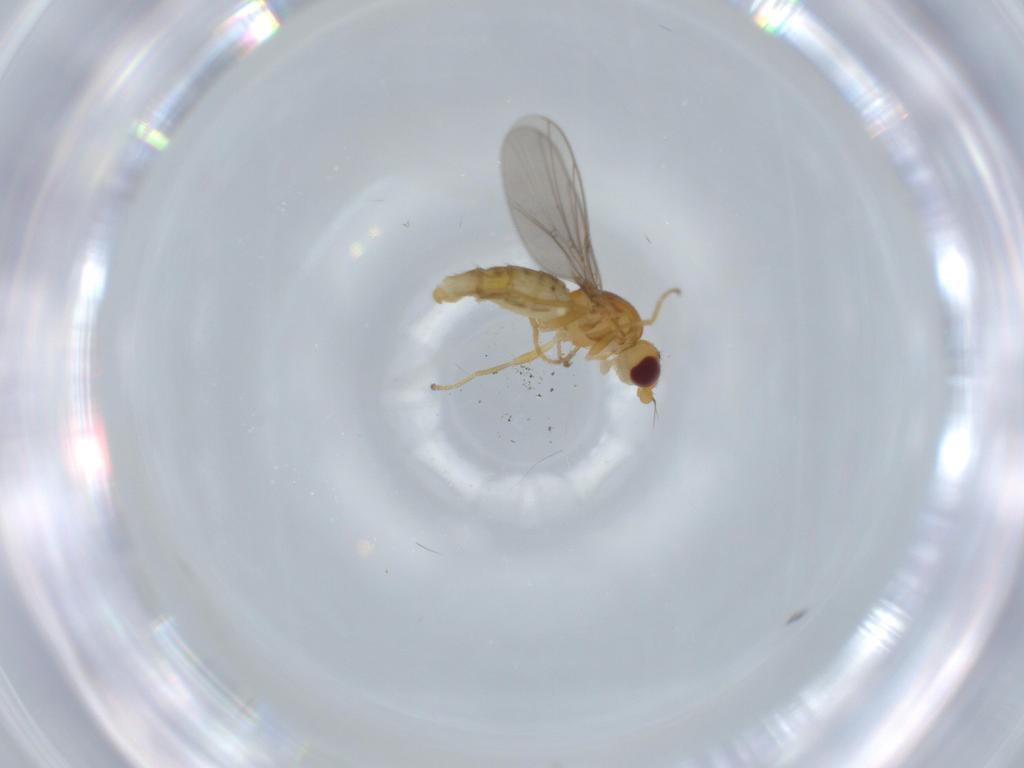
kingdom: Animalia
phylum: Arthropoda
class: Insecta
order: Diptera
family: Chloropidae
